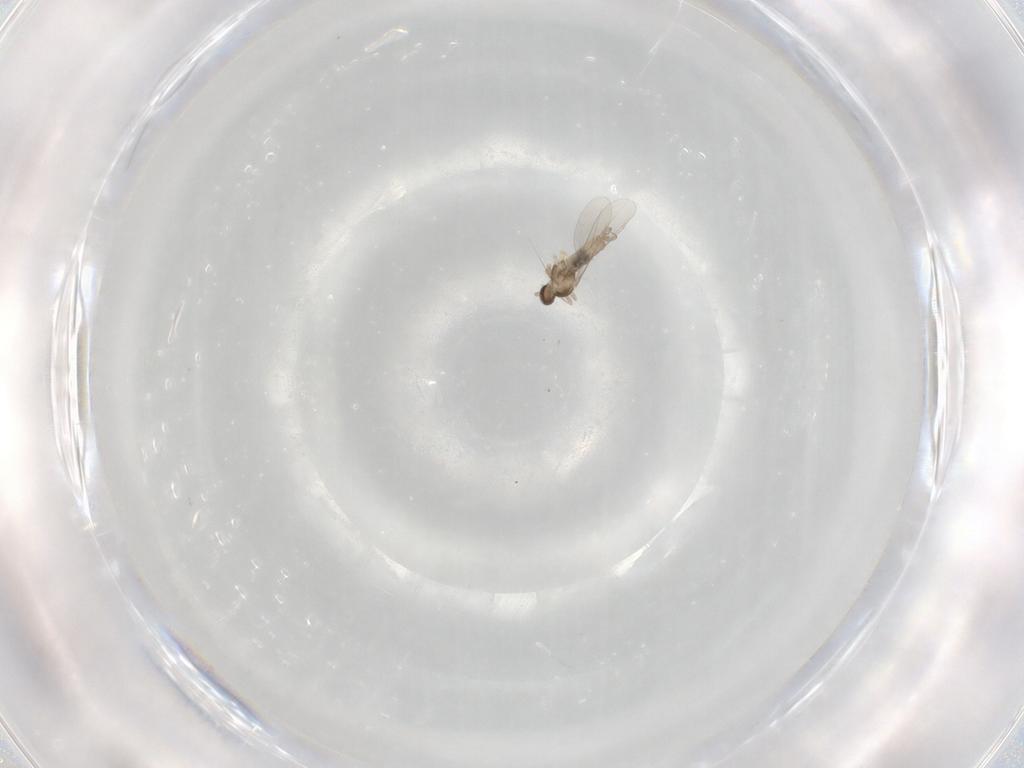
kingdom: Animalia
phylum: Arthropoda
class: Insecta
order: Diptera
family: Cecidomyiidae
